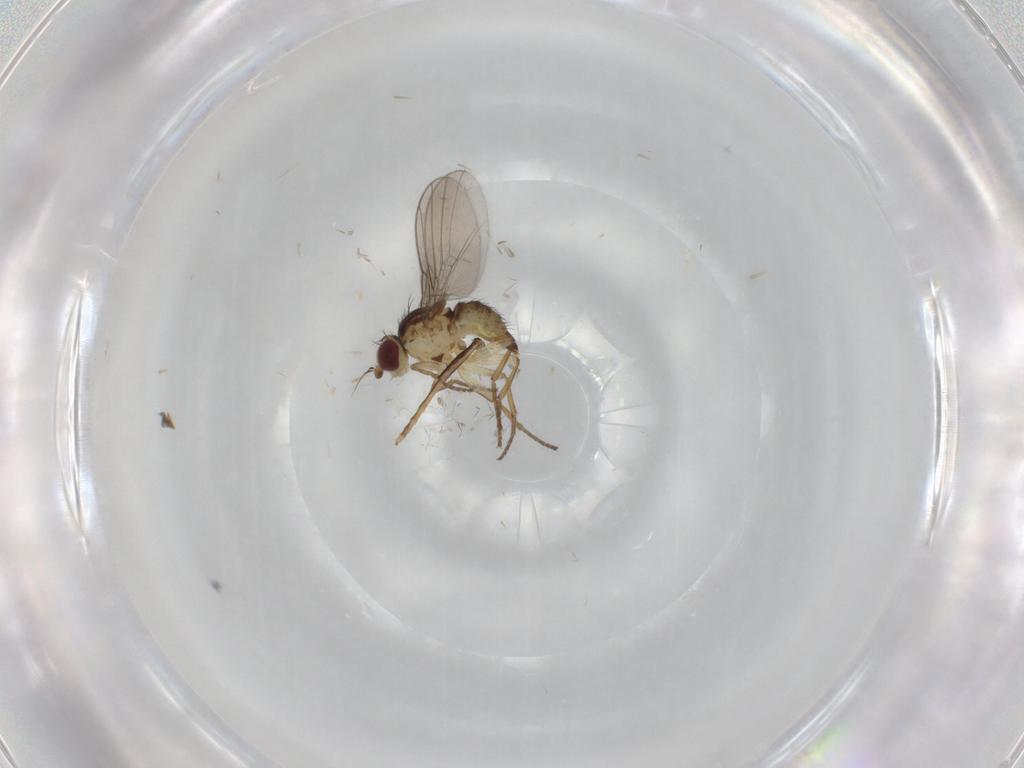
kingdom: Animalia
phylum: Arthropoda
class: Insecta
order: Diptera
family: Agromyzidae
